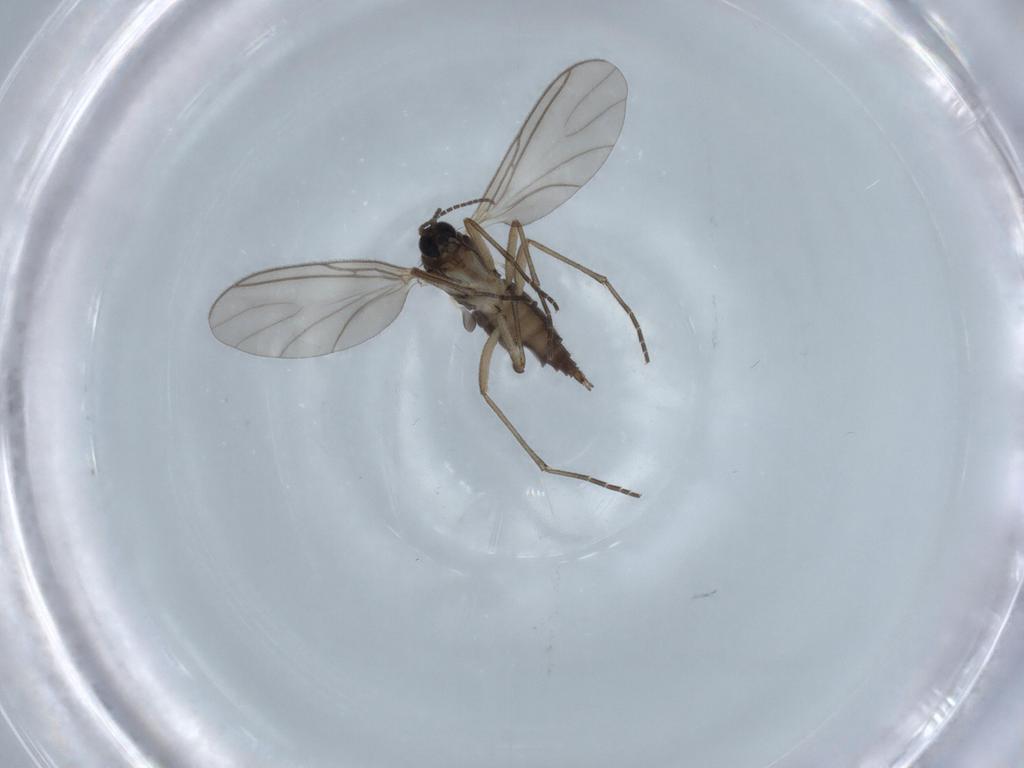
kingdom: Animalia
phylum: Arthropoda
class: Insecta
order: Diptera
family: Sciaridae
